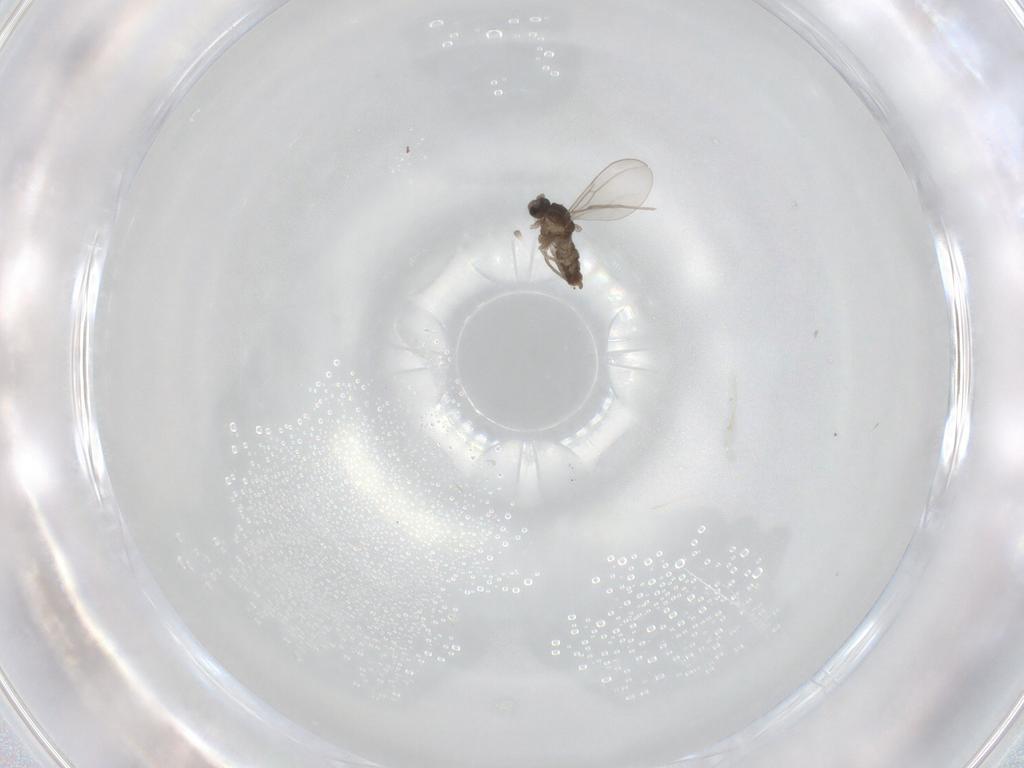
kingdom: Animalia
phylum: Arthropoda
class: Insecta
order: Diptera
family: Cecidomyiidae
